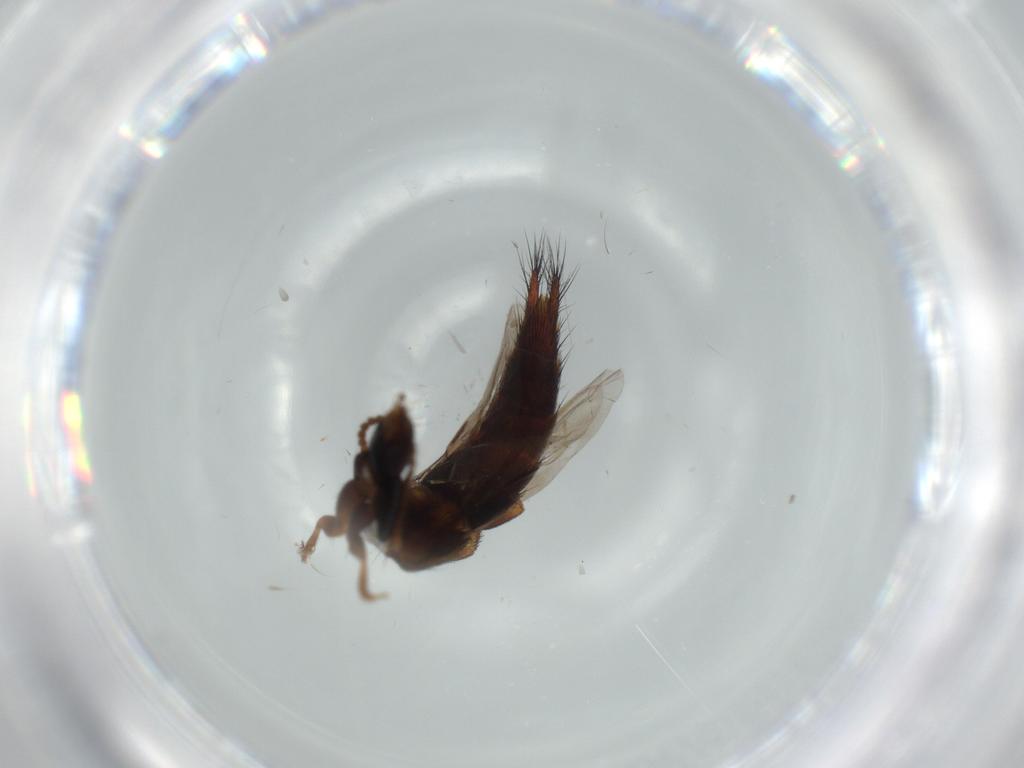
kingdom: Animalia
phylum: Arthropoda
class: Insecta
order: Coleoptera
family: Staphylinidae
